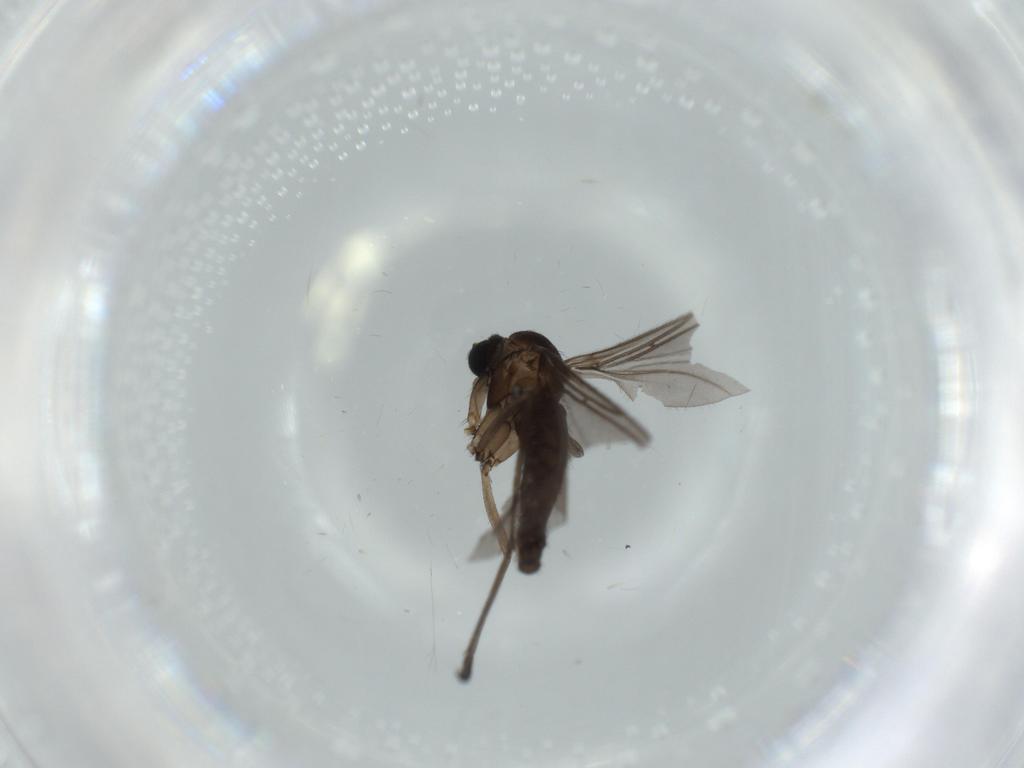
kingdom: Animalia
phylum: Arthropoda
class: Insecta
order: Diptera
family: Sciaridae
